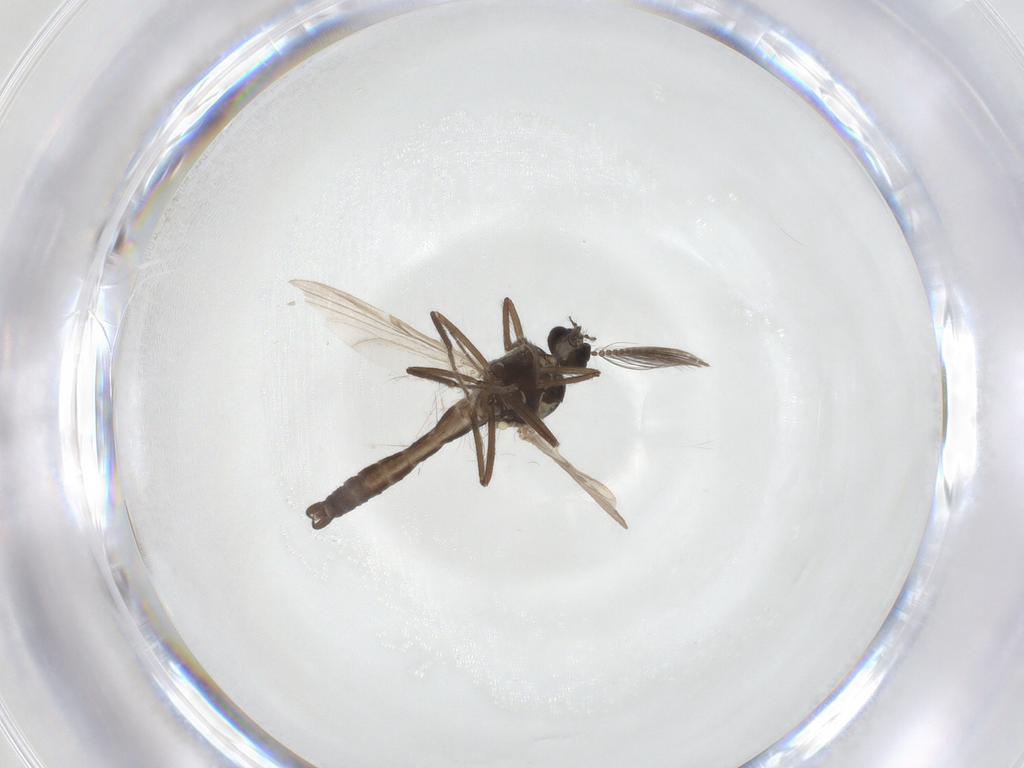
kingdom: Animalia
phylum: Arthropoda
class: Insecta
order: Diptera
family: Ceratopogonidae
